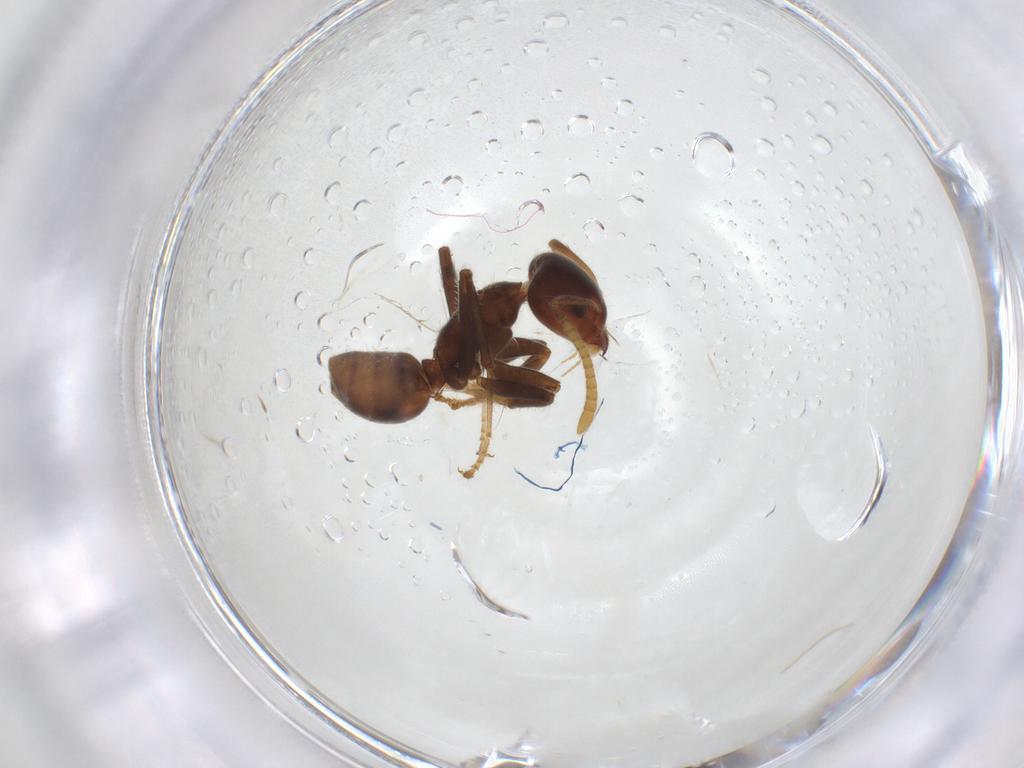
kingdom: Animalia
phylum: Arthropoda
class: Insecta
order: Hymenoptera
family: Formicidae
